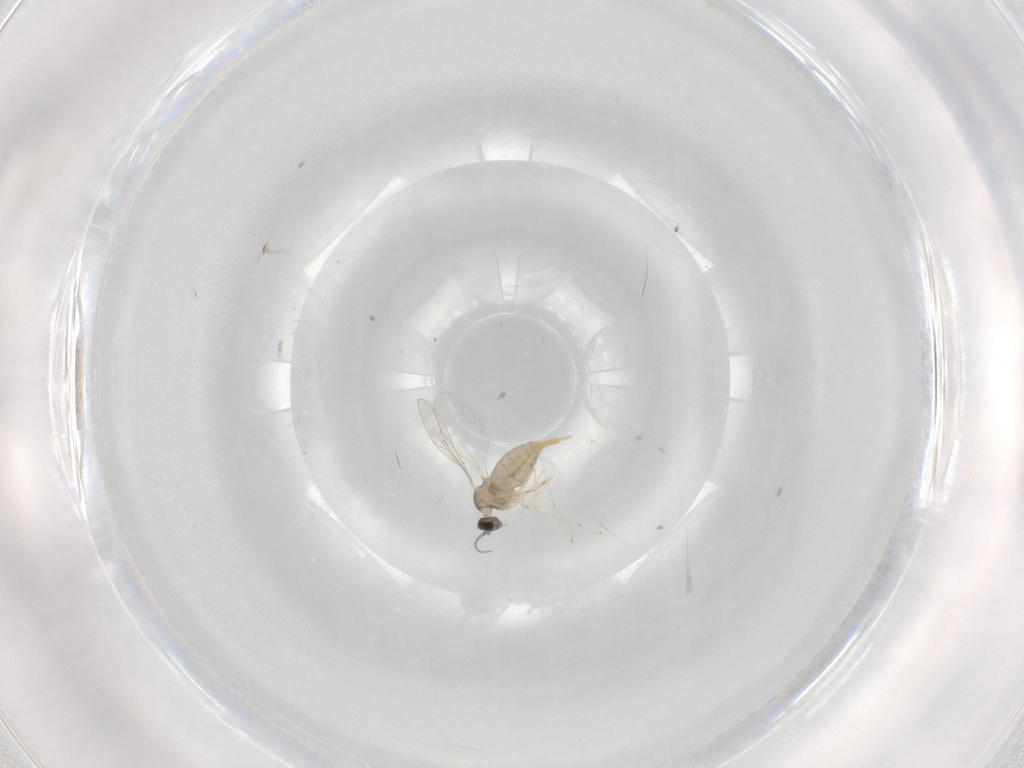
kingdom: Animalia
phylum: Arthropoda
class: Insecta
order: Diptera
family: Cecidomyiidae
